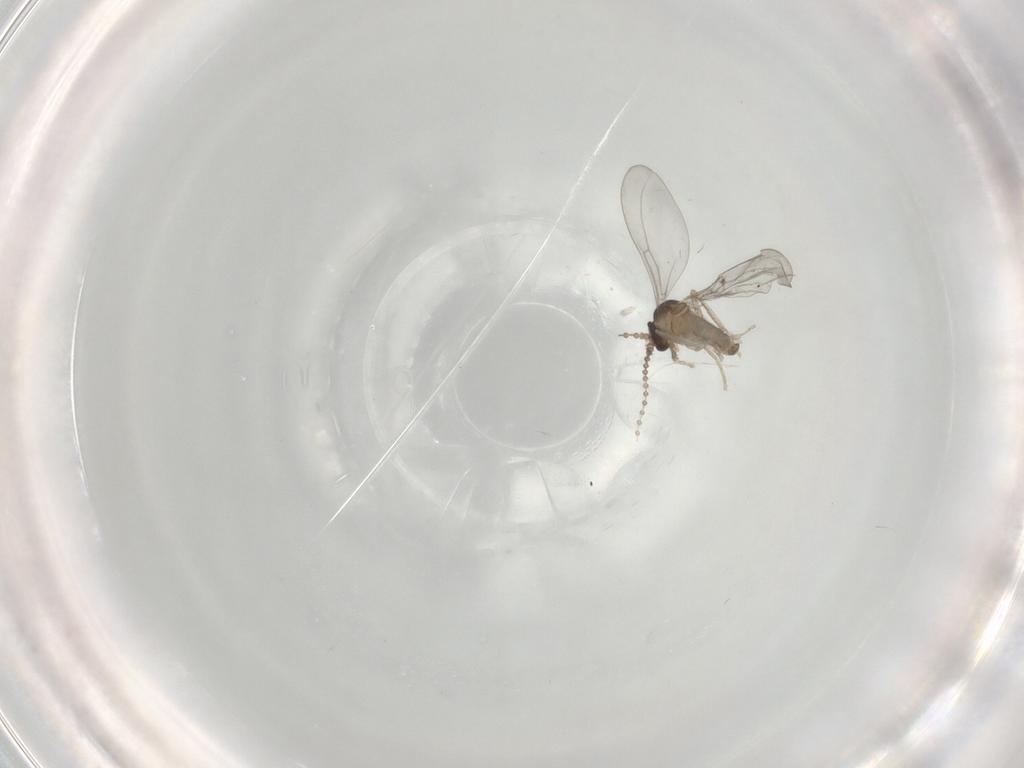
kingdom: Animalia
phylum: Arthropoda
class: Insecta
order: Diptera
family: Cecidomyiidae
